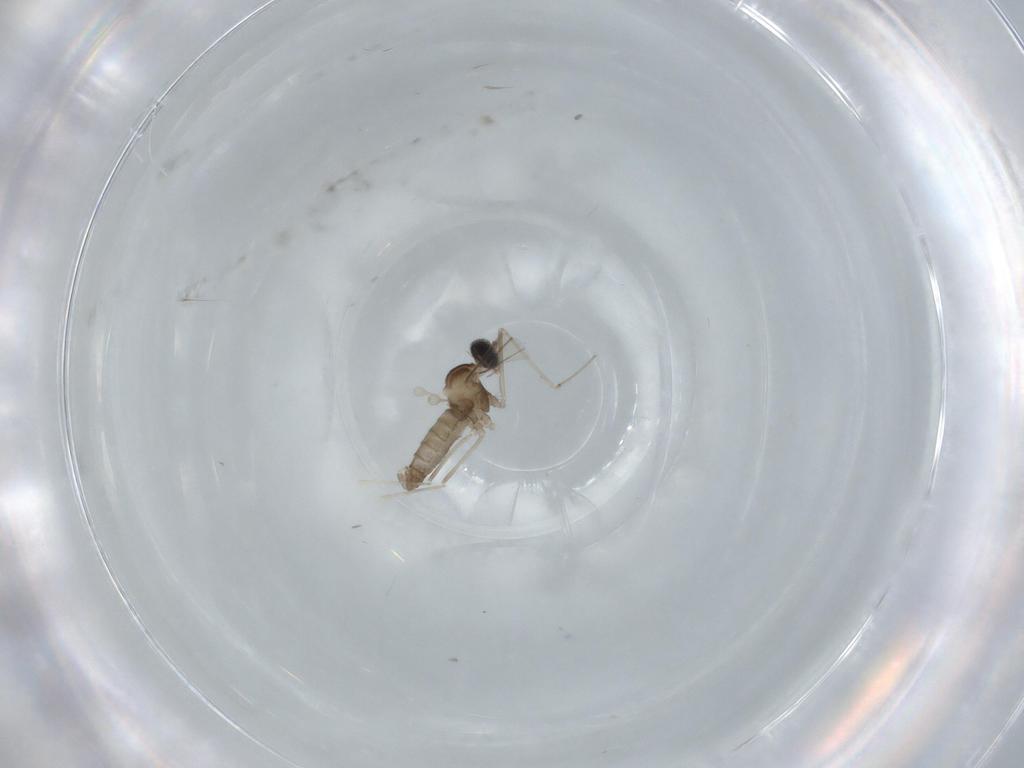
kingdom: Animalia
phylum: Arthropoda
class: Insecta
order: Diptera
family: Cecidomyiidae
